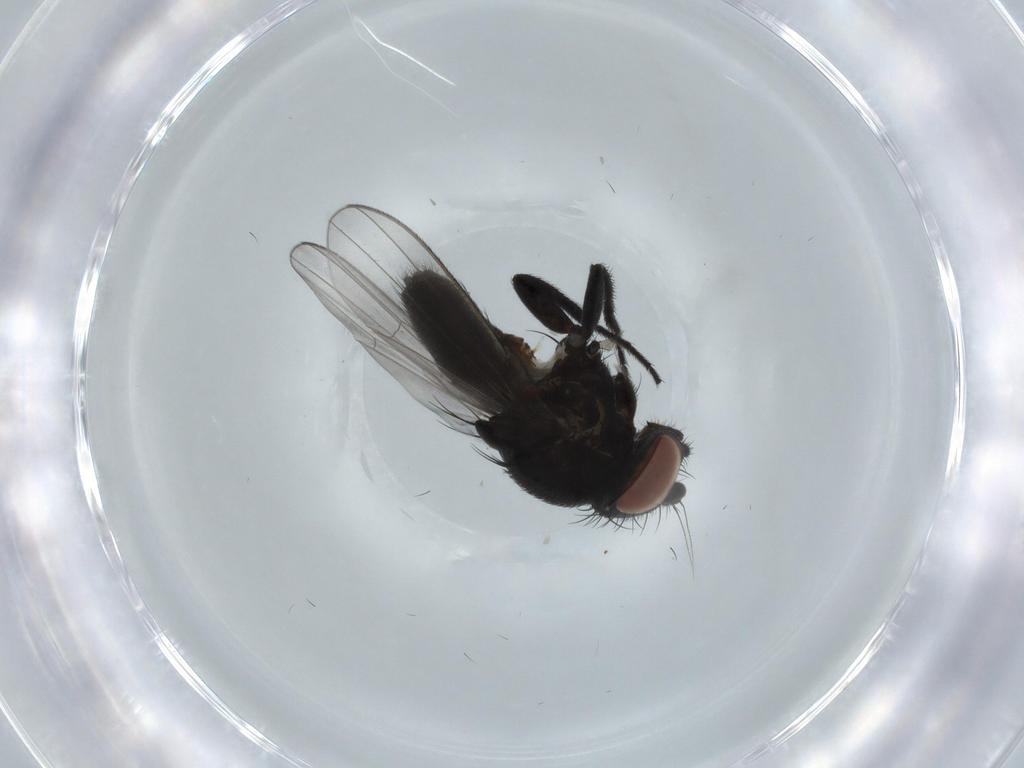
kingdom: Animalia
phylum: Arthropoda
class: Insecta
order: Diptera
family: Milichiidae
